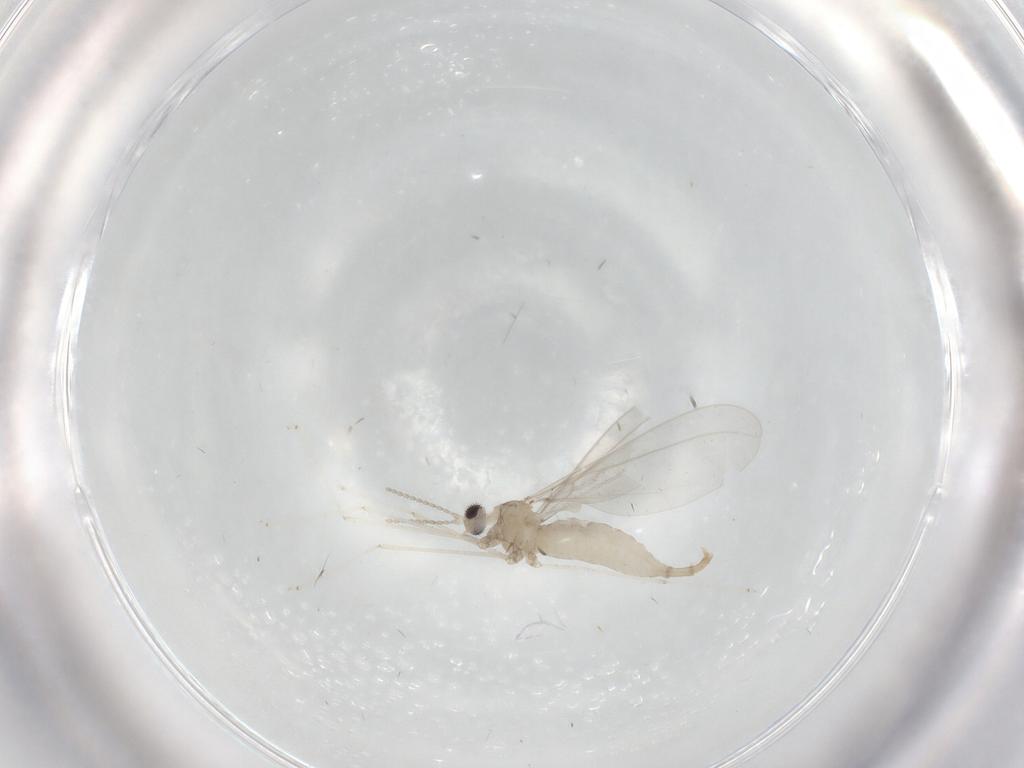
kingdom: Animalia
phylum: Arthropoda
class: Insecta
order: Diptera
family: Cecidomyiidae
